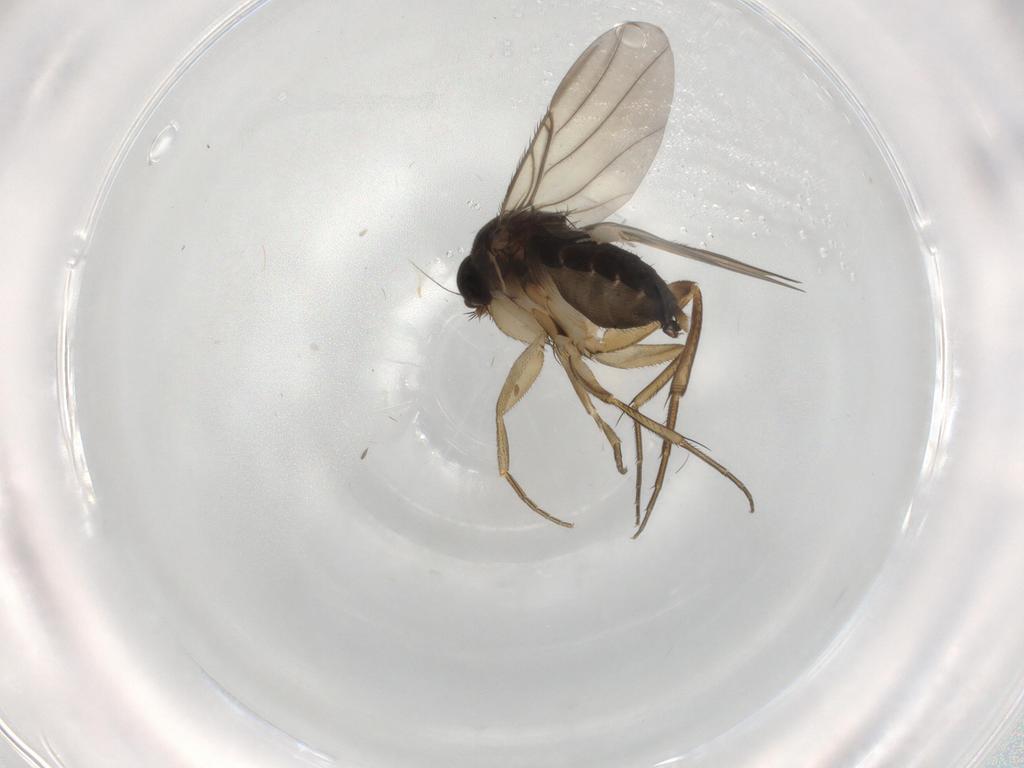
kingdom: Animalia
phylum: Arthropoda
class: Insecta
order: Diptera
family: Phoridae
